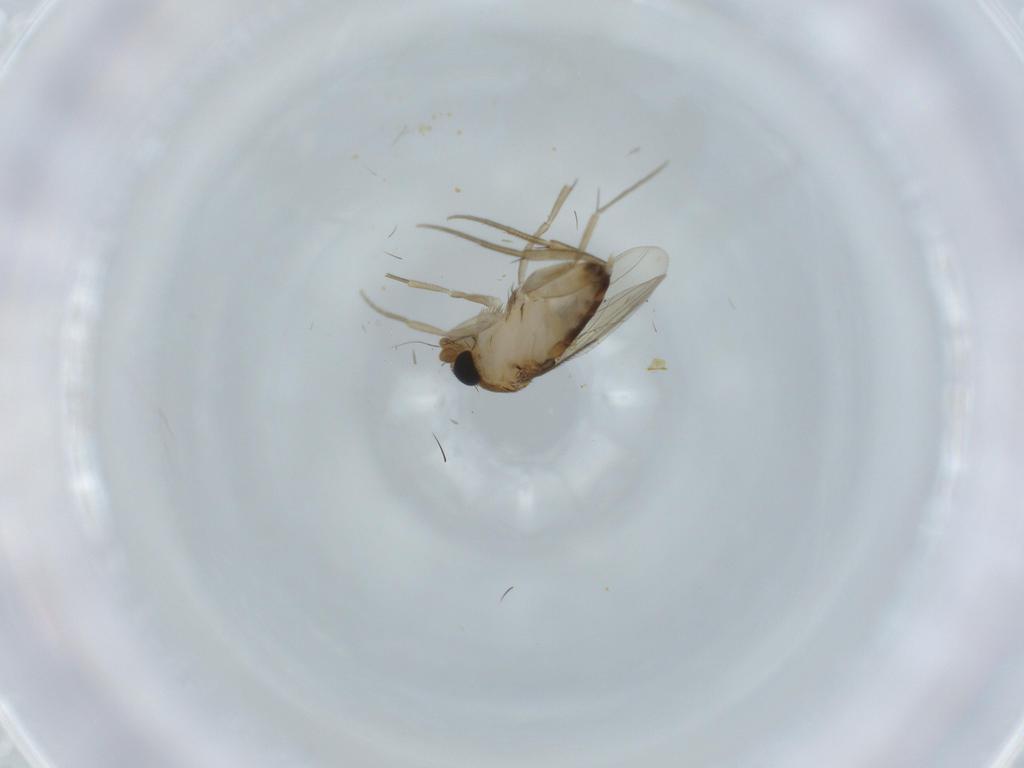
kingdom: Animalia
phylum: Arthropoda
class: Insecta
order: Diptera
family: Phoridae
